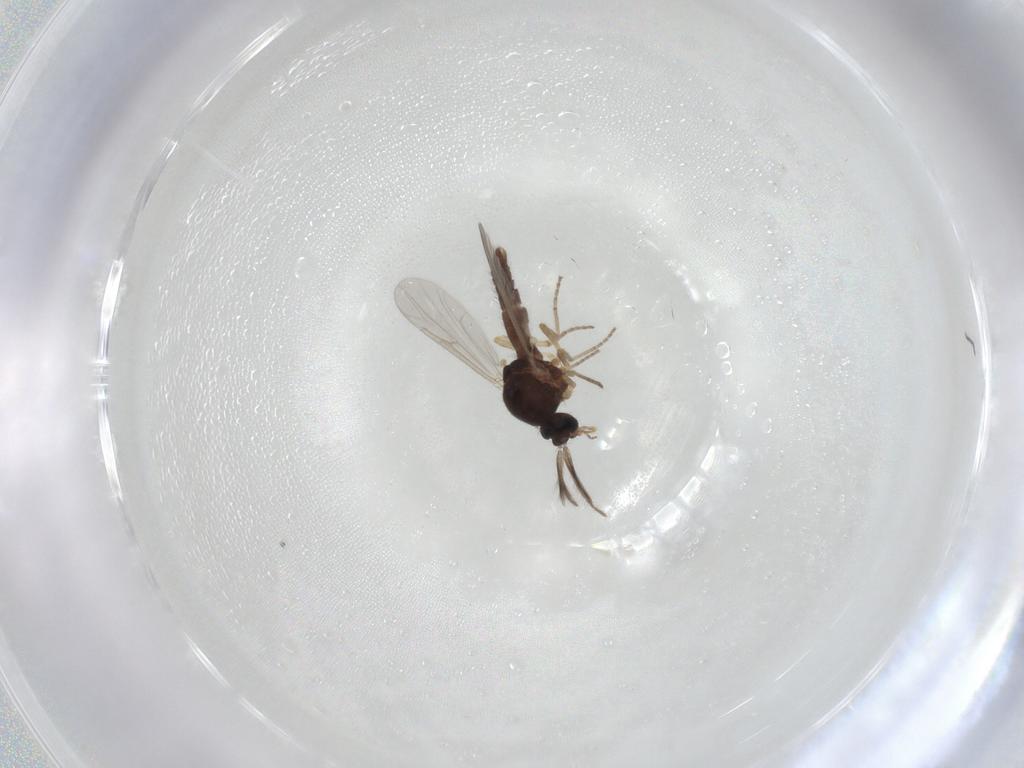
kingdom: Animalia
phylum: Arthropoda
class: Insecta
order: Diptera
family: Ceratopogonidae
